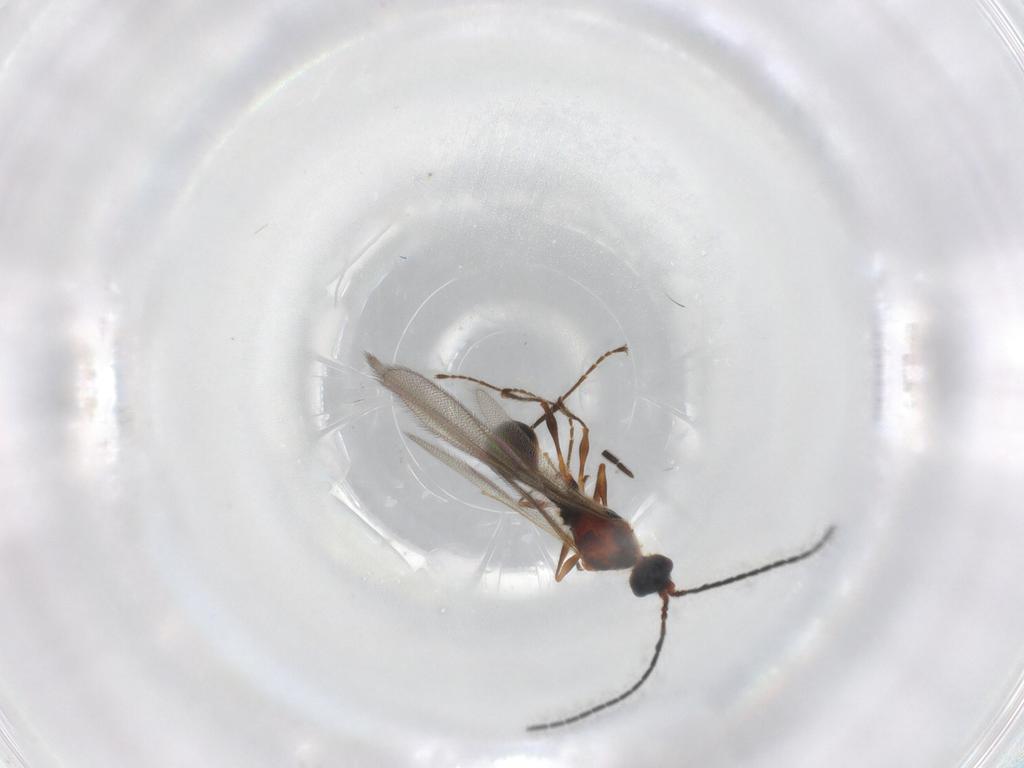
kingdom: Animalia
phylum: Arthropoda
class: Insecta
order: Hymenoptera
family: Diapriidae
